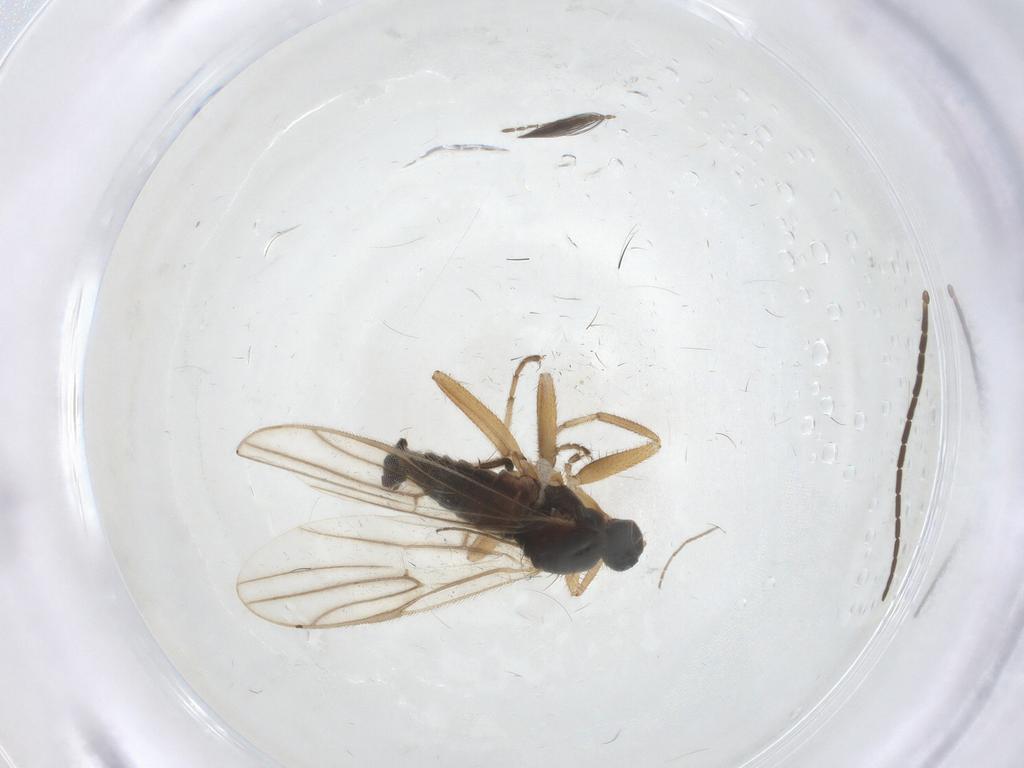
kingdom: Animalia
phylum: Arthropoda
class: Insecta
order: Diptera
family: Hybotidae
